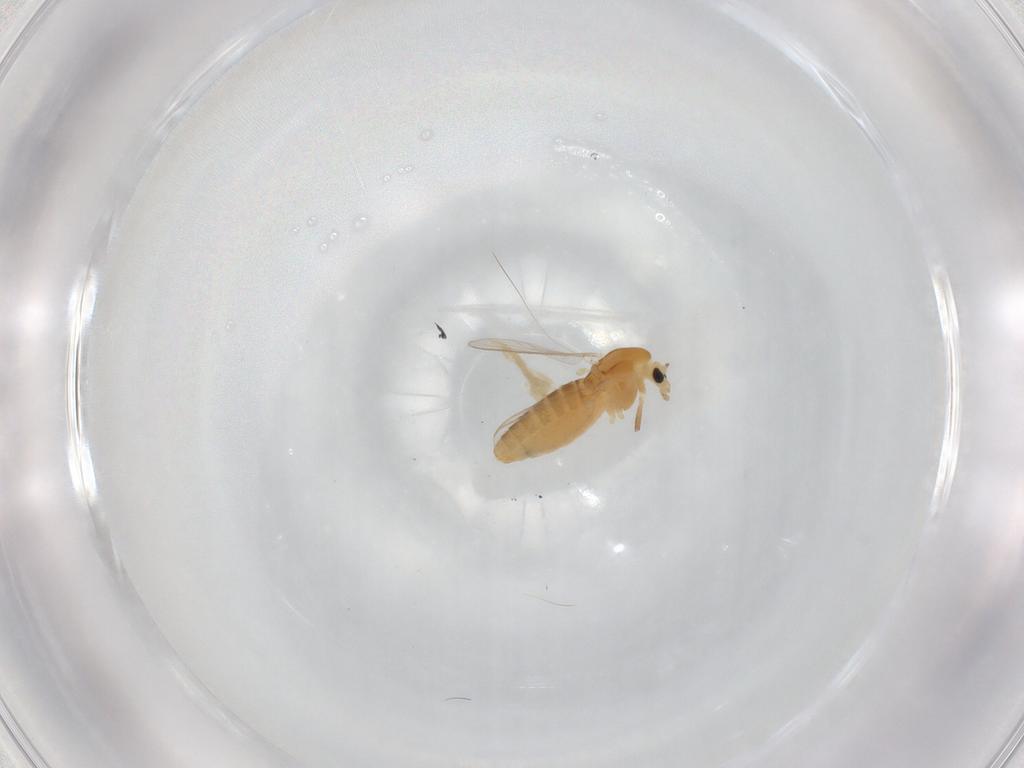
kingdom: Animalia
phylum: Arthropoda
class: Insecta
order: Diptera
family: Chironomidae
